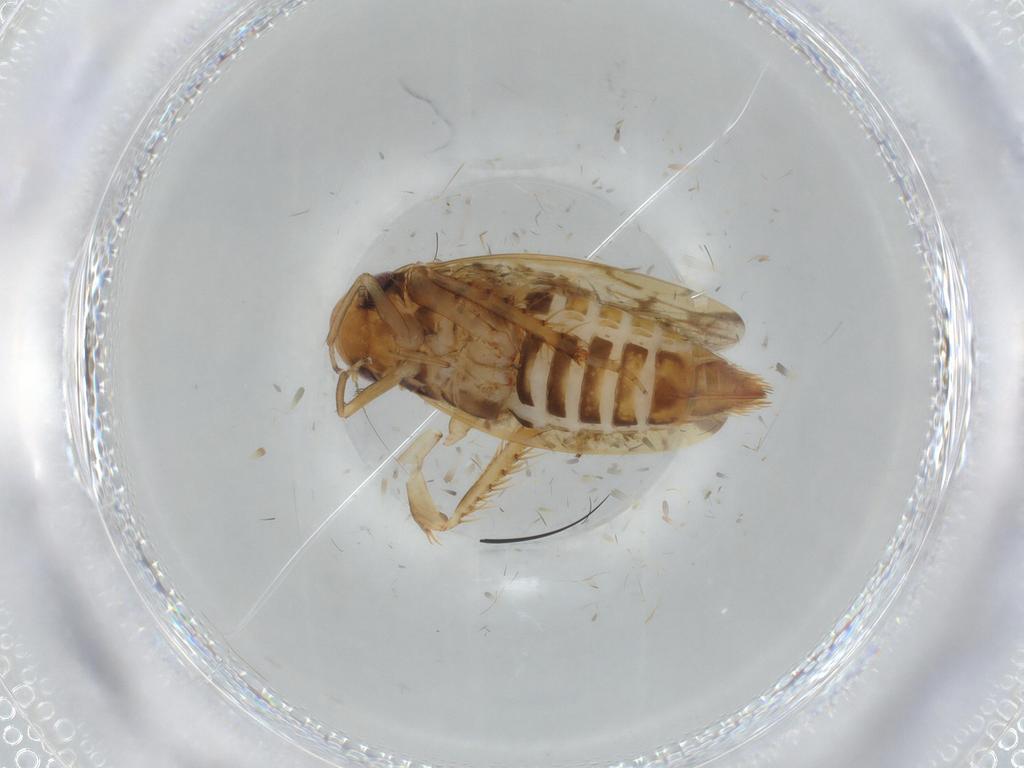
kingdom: Animalia
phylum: Arthropoda
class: Insecta
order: Hemiptera
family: Cicadellidae
